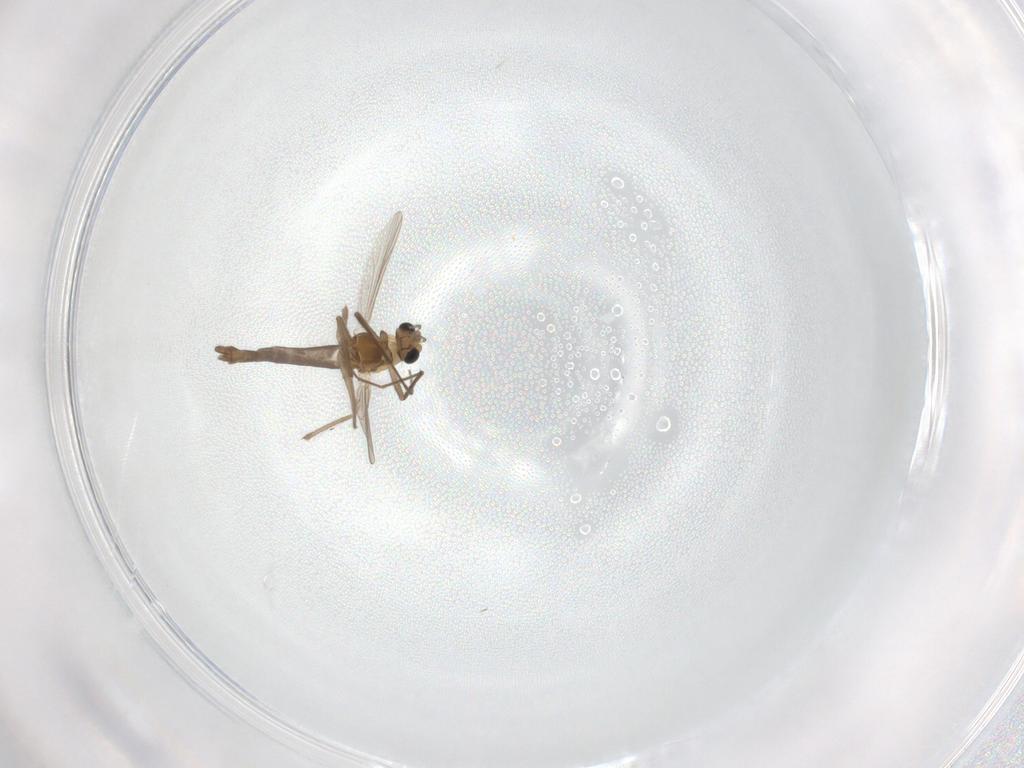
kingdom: Animalia
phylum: Arthropoda
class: Insecta
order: Diptera
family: Chironomidae
